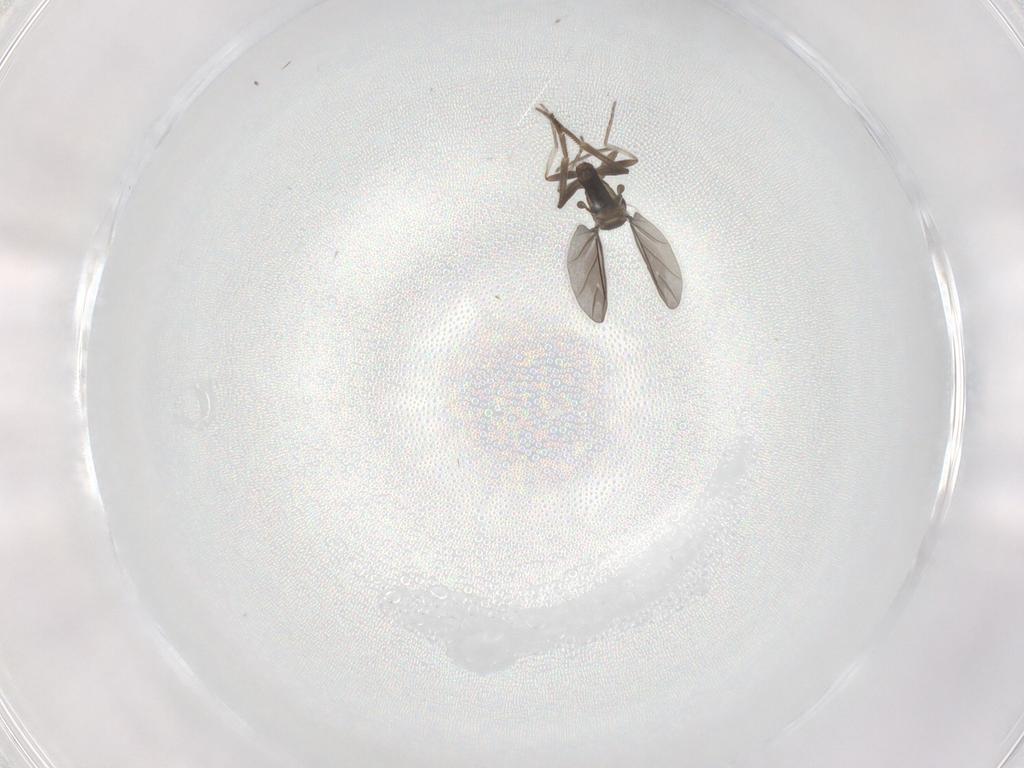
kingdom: Animalia
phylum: Arthropoda
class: Insecta
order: Diptera
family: Phoridae
